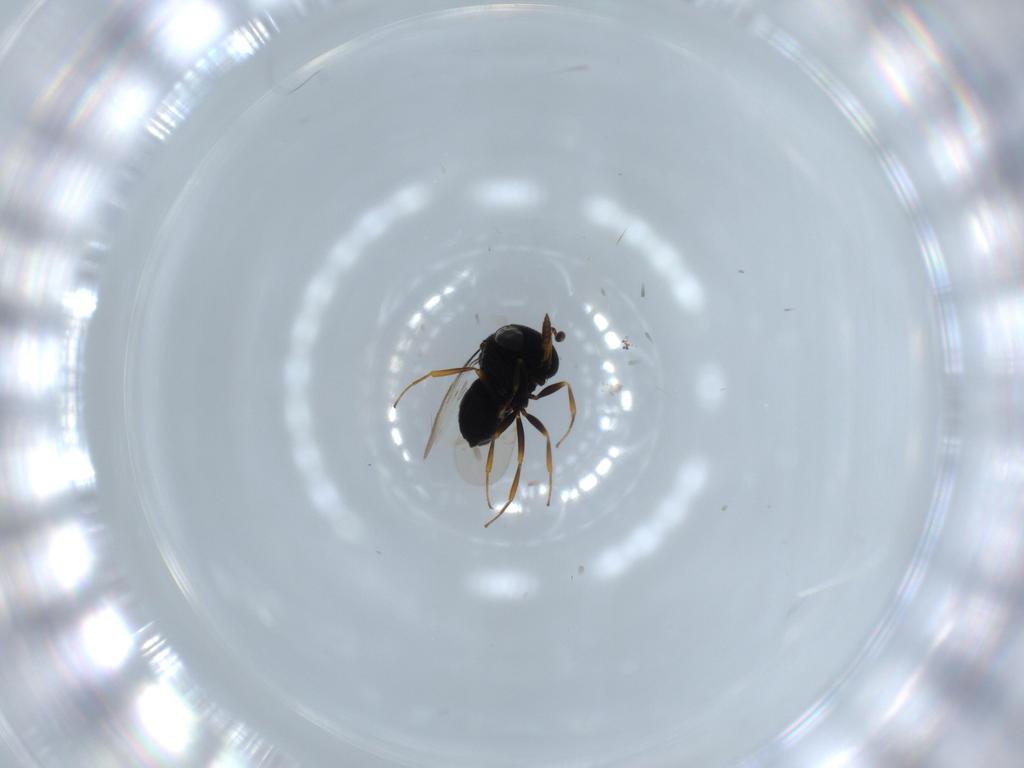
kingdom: Animalia
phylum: Arthropoda
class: Insecta
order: Hymenoptera
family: Scelionidae
